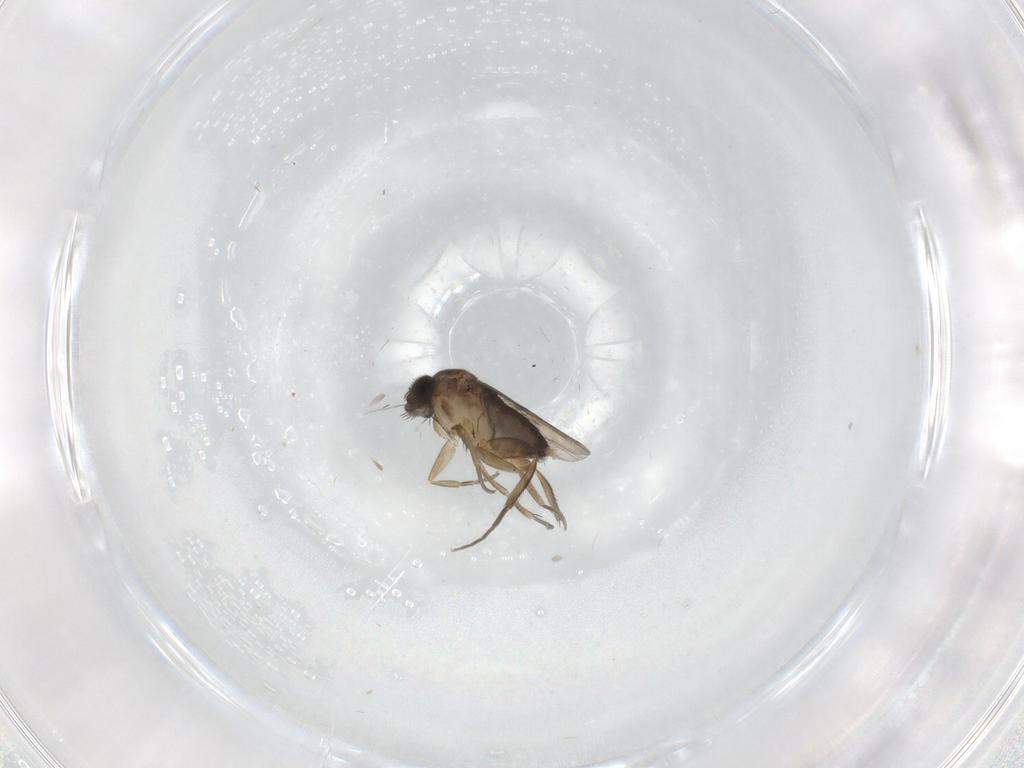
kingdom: Animalia
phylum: Arthropoda
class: Insecta
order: Diptera
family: Phoridae
